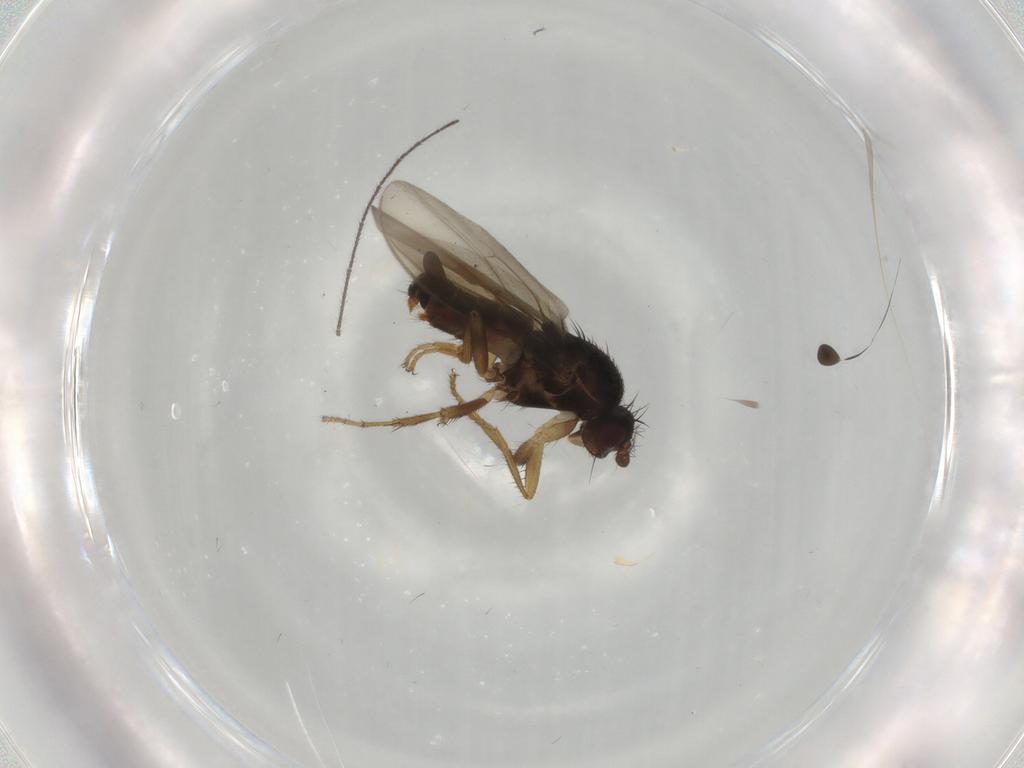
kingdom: Animalia
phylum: Arthropoda
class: Insecta
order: Diptera
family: Sphaeroceridae
